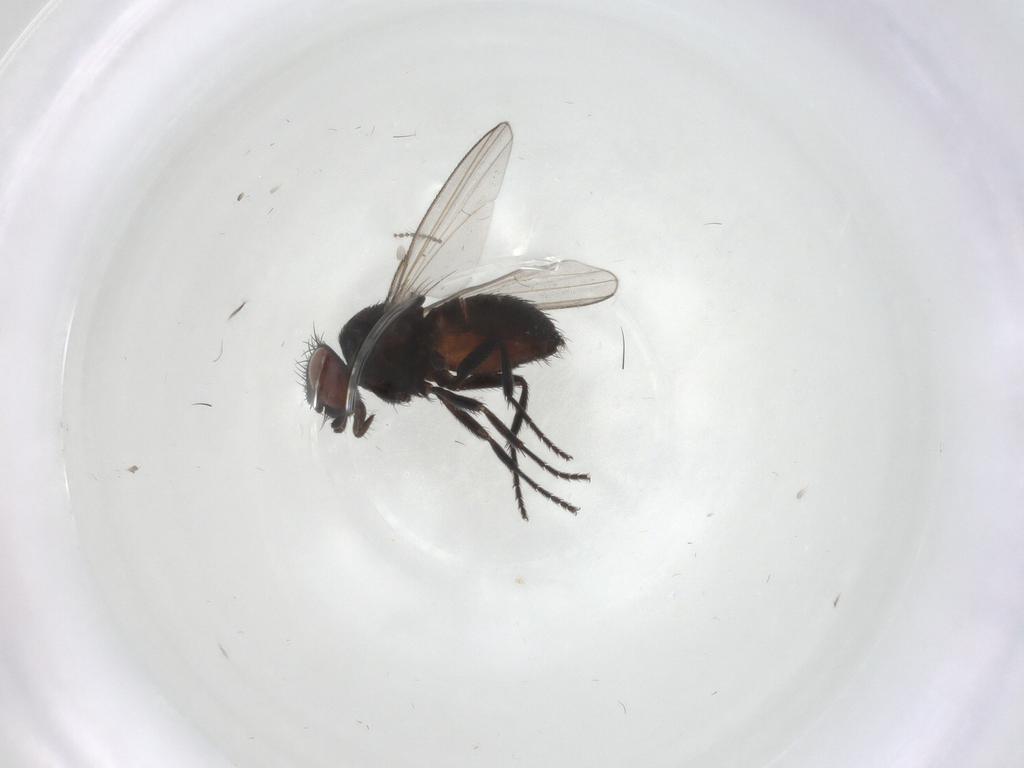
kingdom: Animalia
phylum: Arthropoda
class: Insecta
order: Diptera
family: Milichiidae
